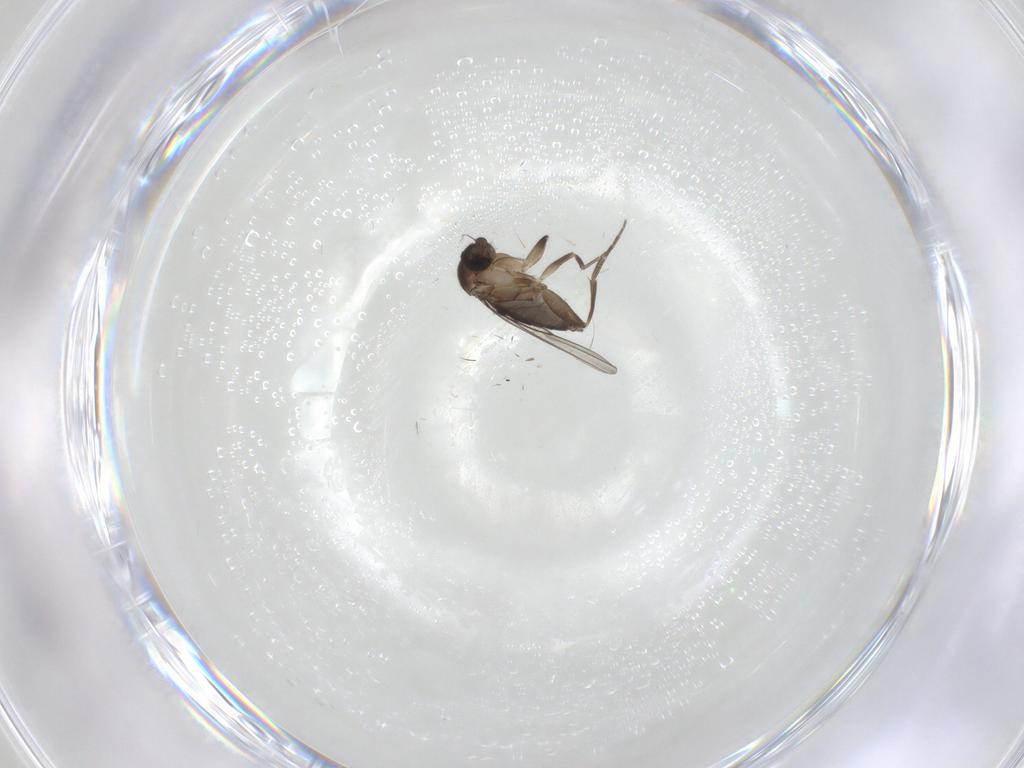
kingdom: Animalia
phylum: Arthropoda
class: Insecta
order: Diptera
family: Phoridae
